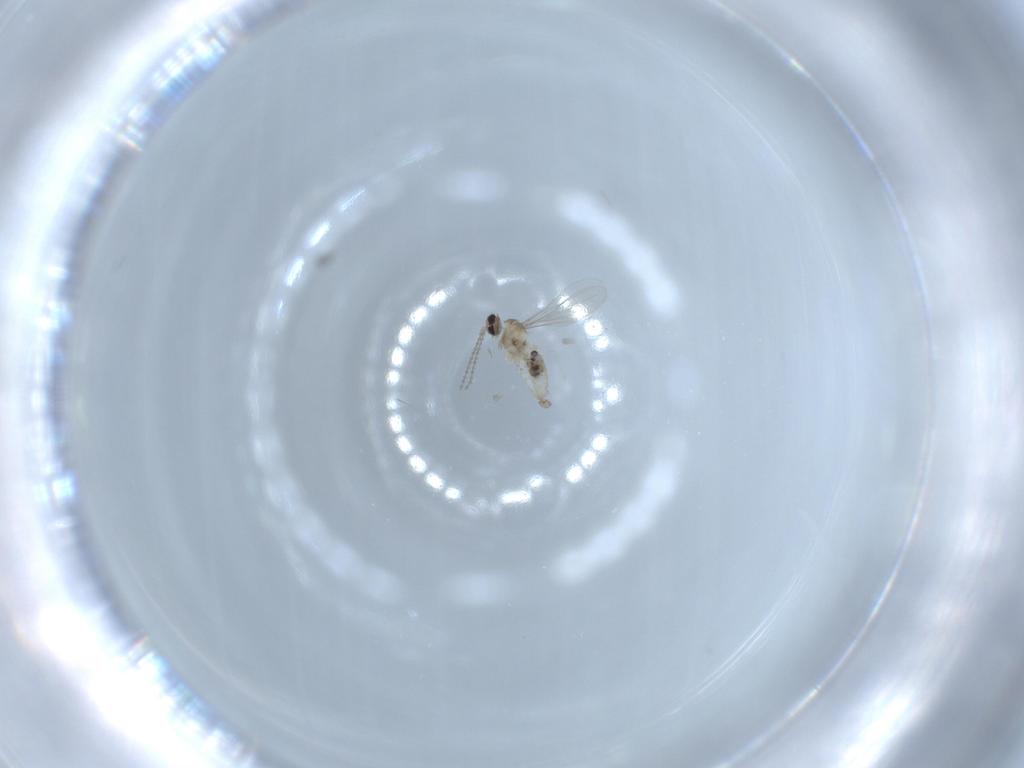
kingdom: Animalia
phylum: Arthropoda
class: Insecta
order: Diptera
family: Cecidomyiidae
